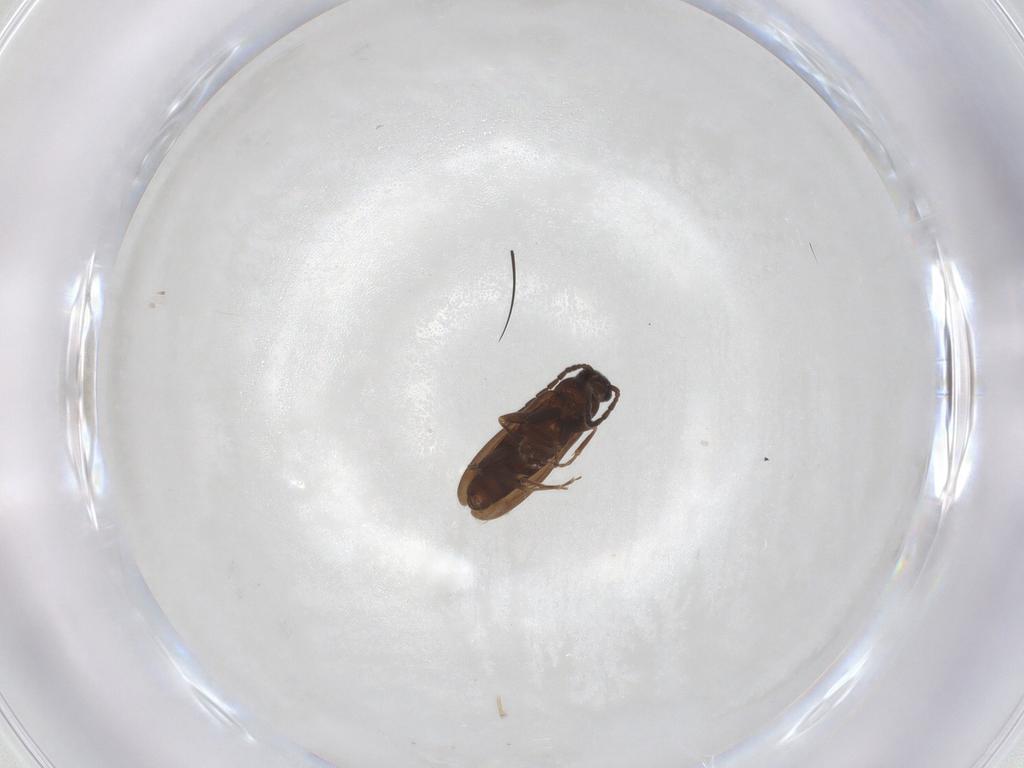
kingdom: Animalia
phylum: Arthropoda
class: Insecta
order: Coleoptera
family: Scraptiidae
